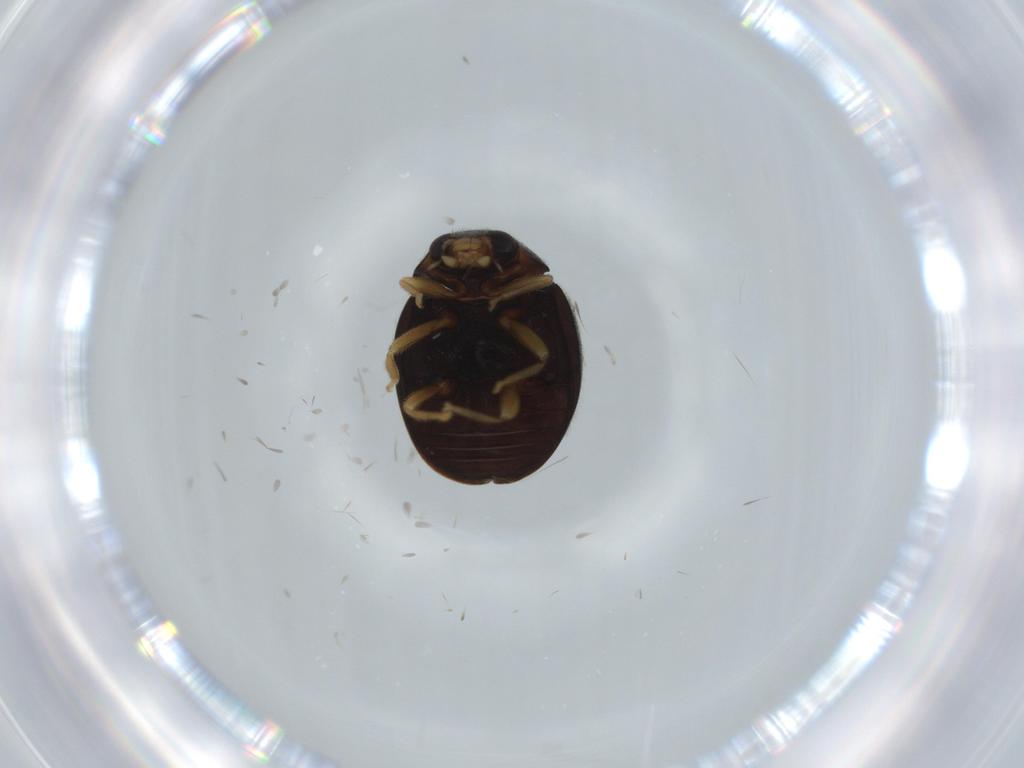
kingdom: Animalia
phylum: Arthropoda
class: Insecta
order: Coleoptera
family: Coccinellidae
